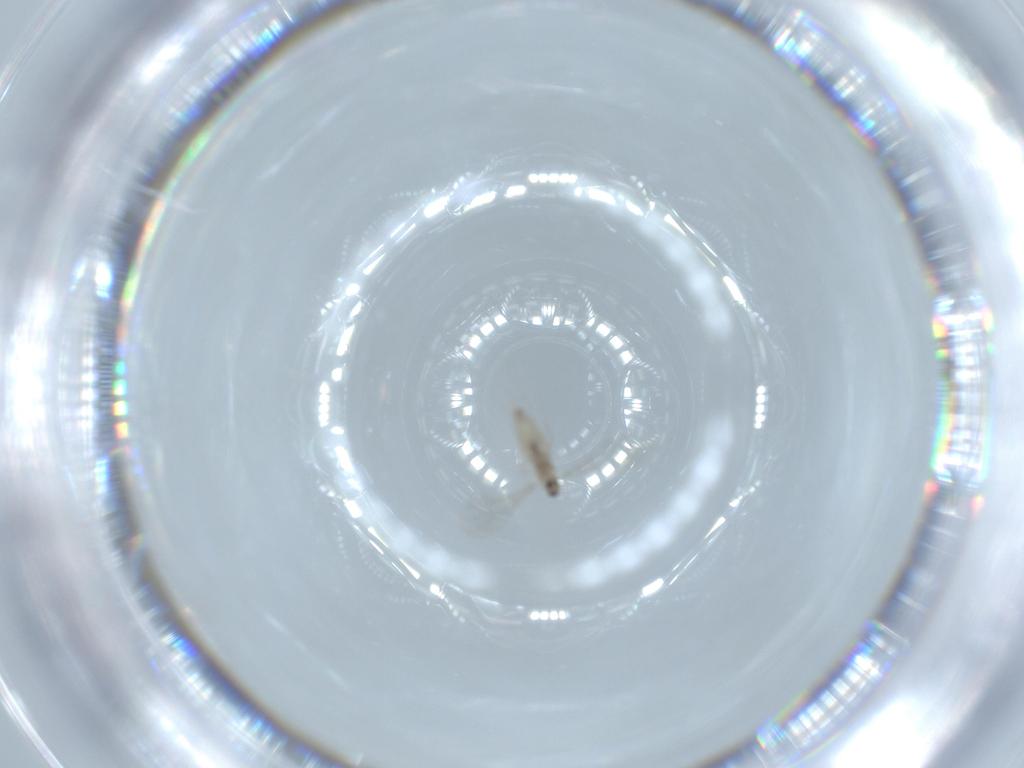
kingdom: Animalia
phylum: Arthropoda
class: Insecta
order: Diptera
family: Cecidomyiidae
